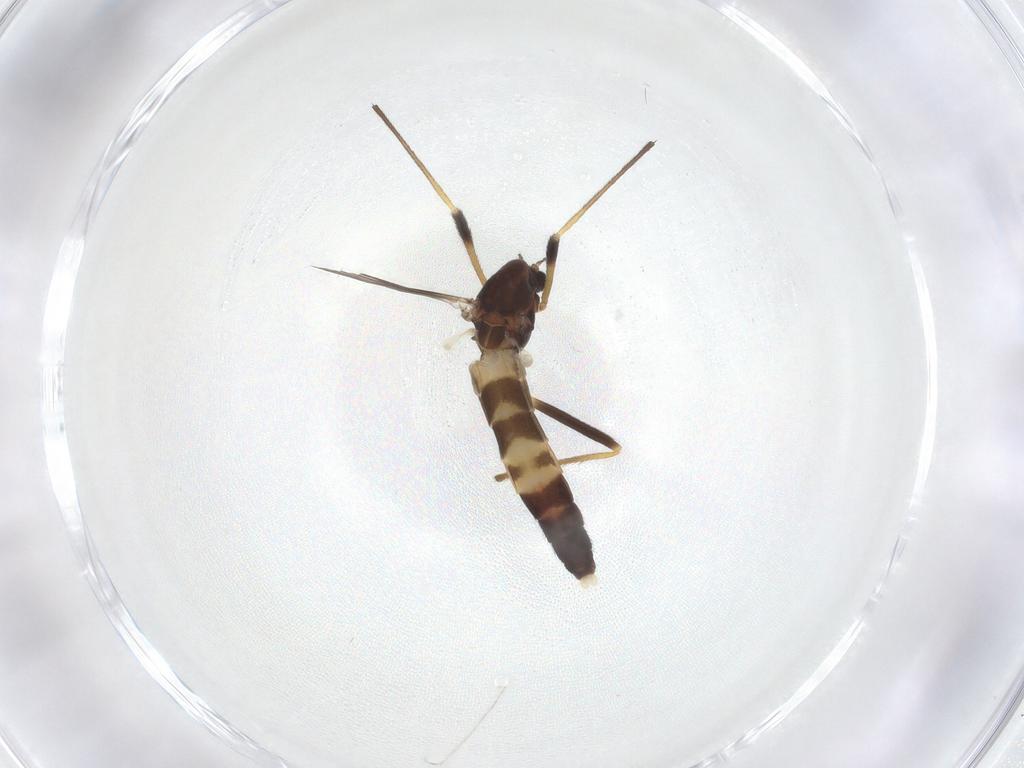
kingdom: Animalia
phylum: Arthropoda
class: Insecta
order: Diptera
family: Chironomidae
